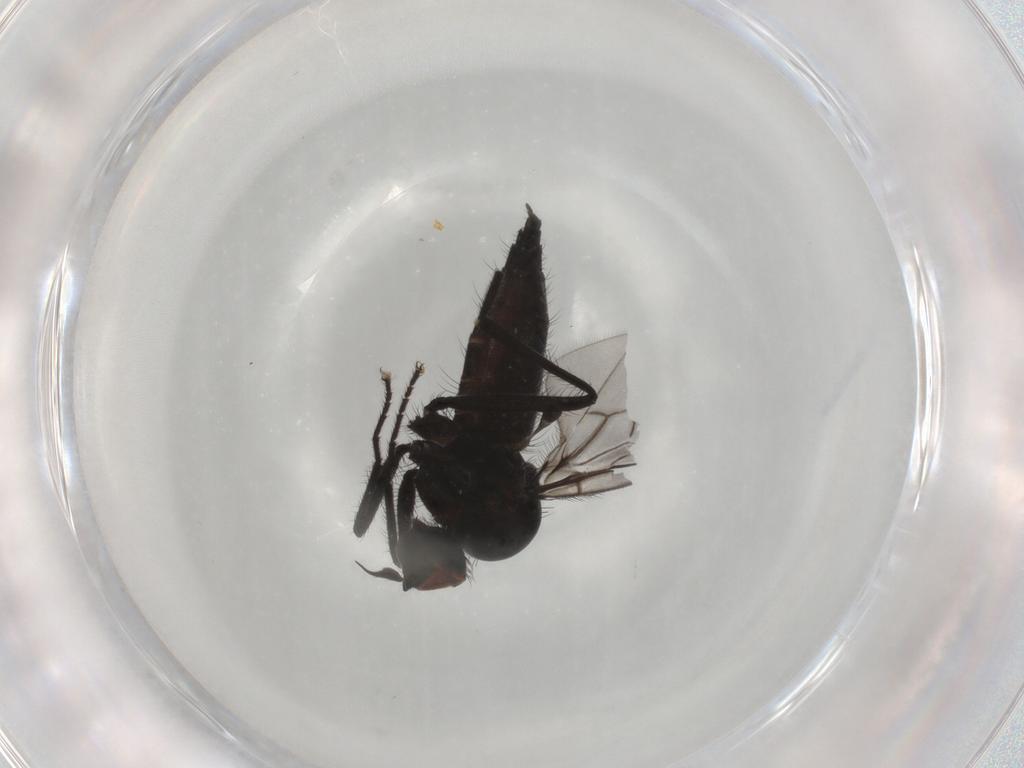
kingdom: Animalia
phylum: Arthropoda
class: Insecta
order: Diptera
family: Hybotidae
